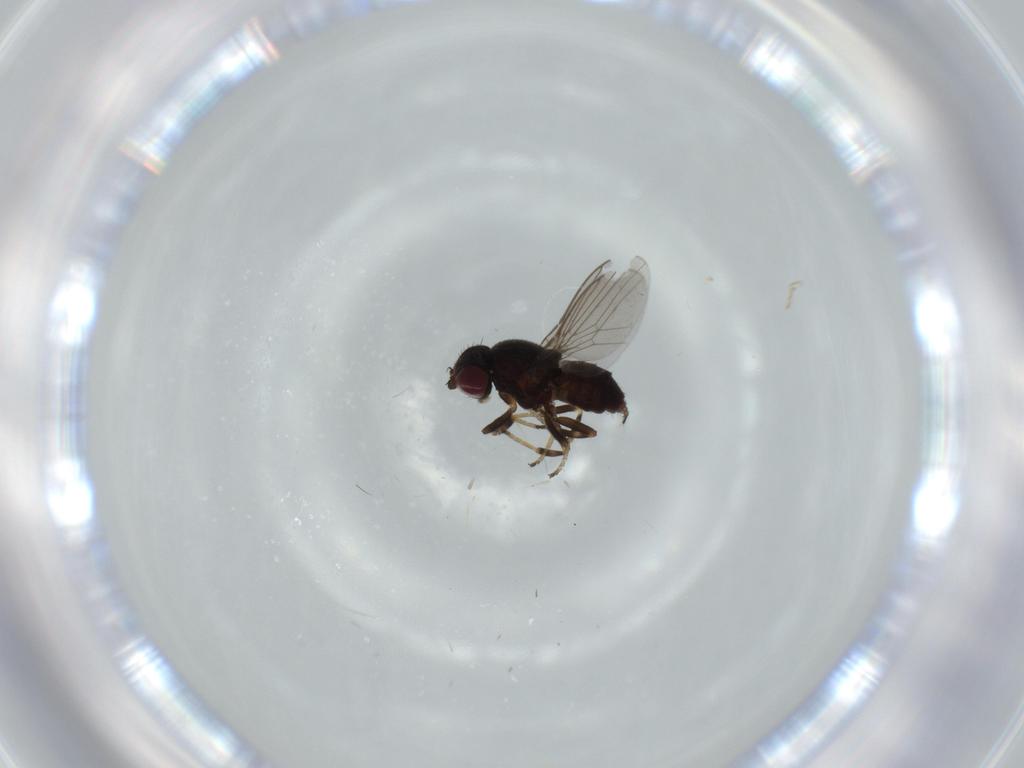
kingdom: Animalia
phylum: Arthropoda
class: Insecta
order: Diptera
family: Chloropidae
